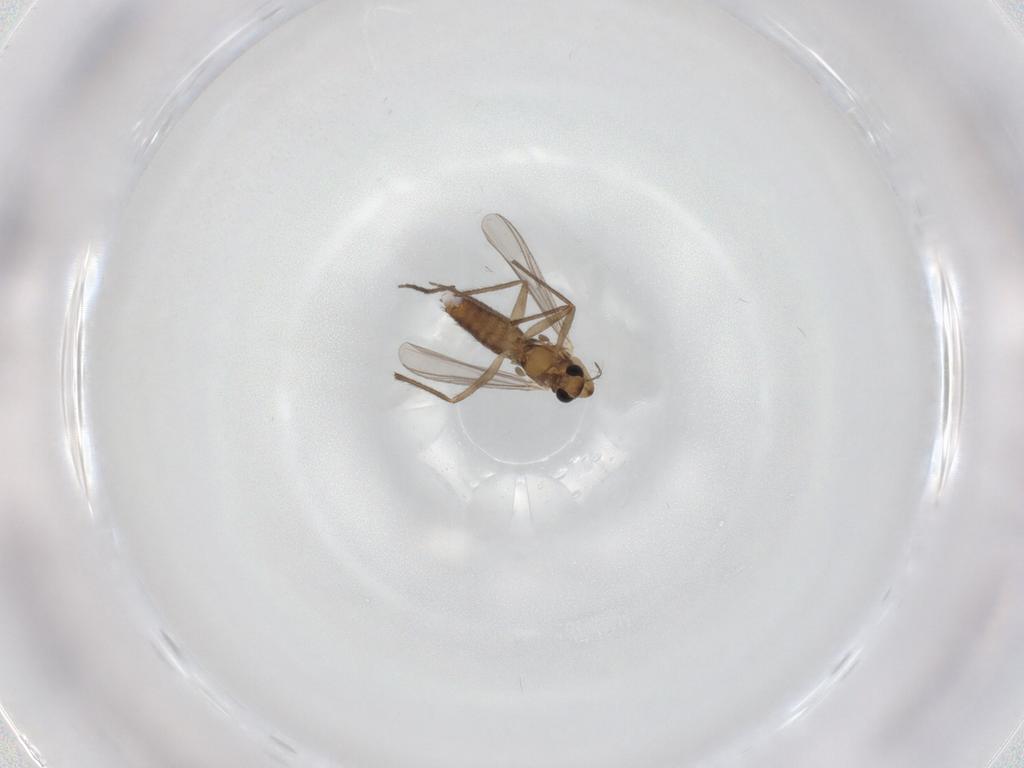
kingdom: Animalia
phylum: Arthropoda
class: Insecta
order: Diptera
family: Chironomidae
